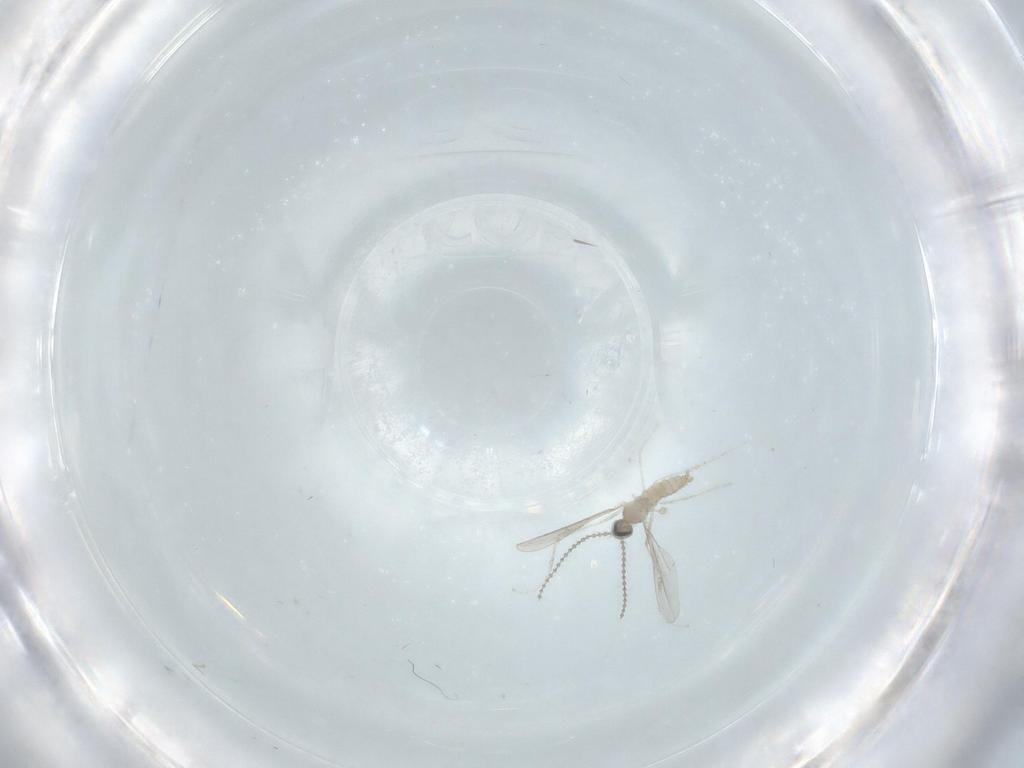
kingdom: Animalia
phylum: Arthropoda
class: Insecta
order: Diptera
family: Cecidomyiidae
